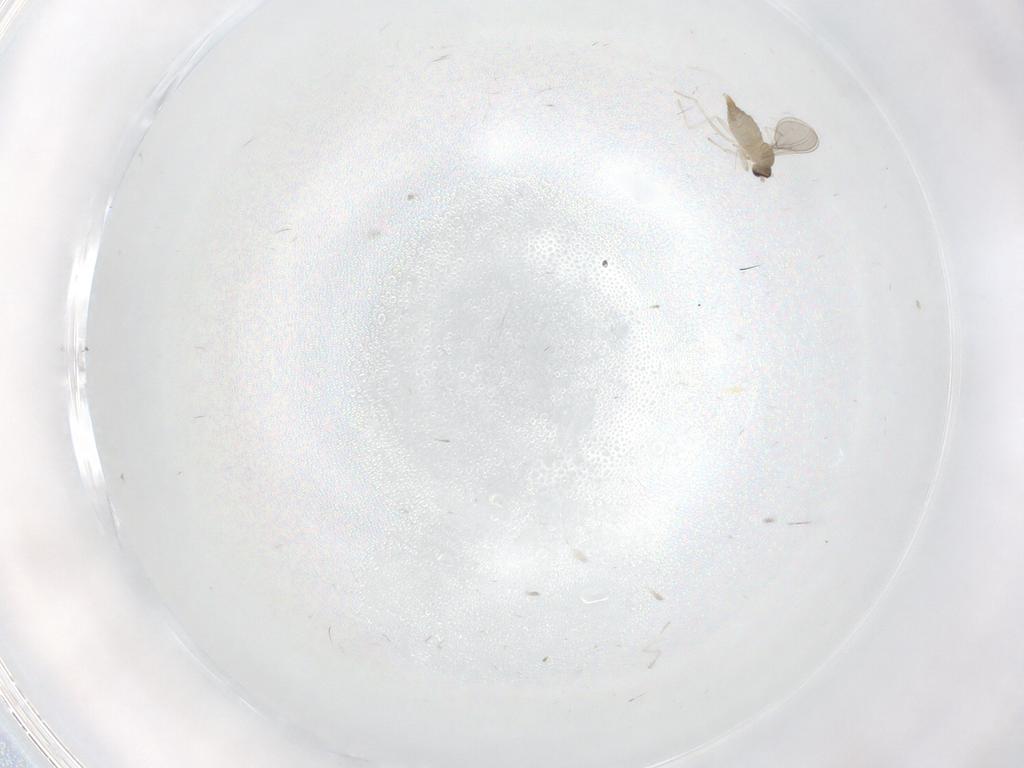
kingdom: Animalia
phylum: Arthropoda
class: Insecta
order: Diptera
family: Cecidomyiidae
